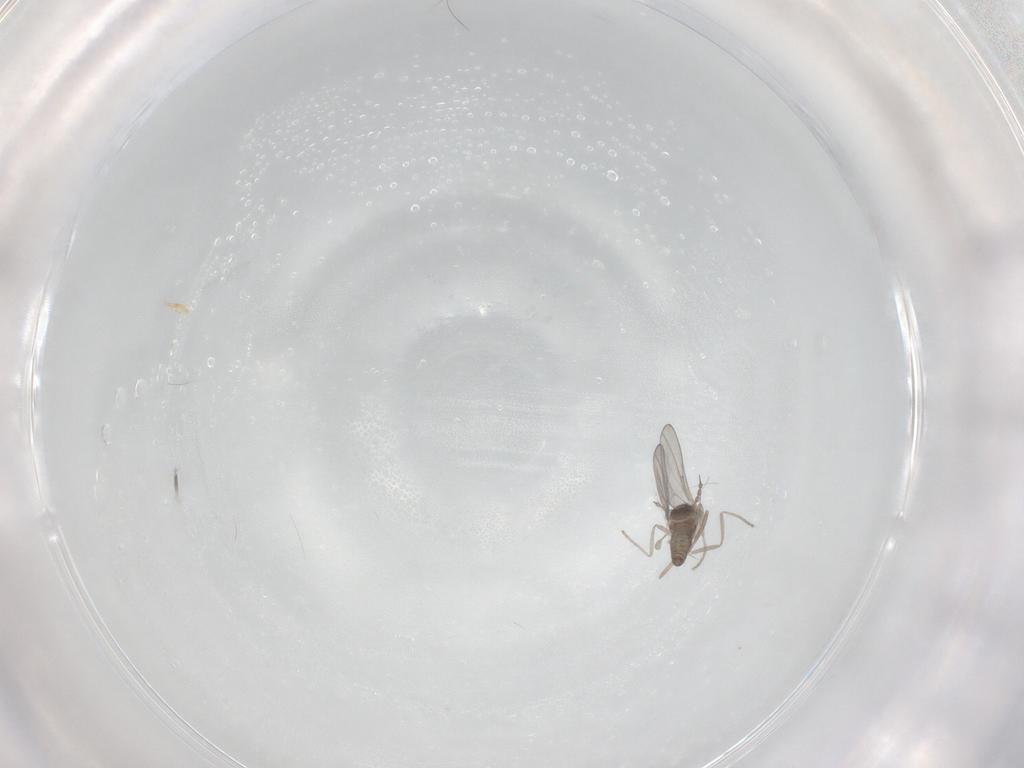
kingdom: Animalia
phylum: Arthropoda
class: Insecta
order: Diptera
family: Cecidomyiidae
